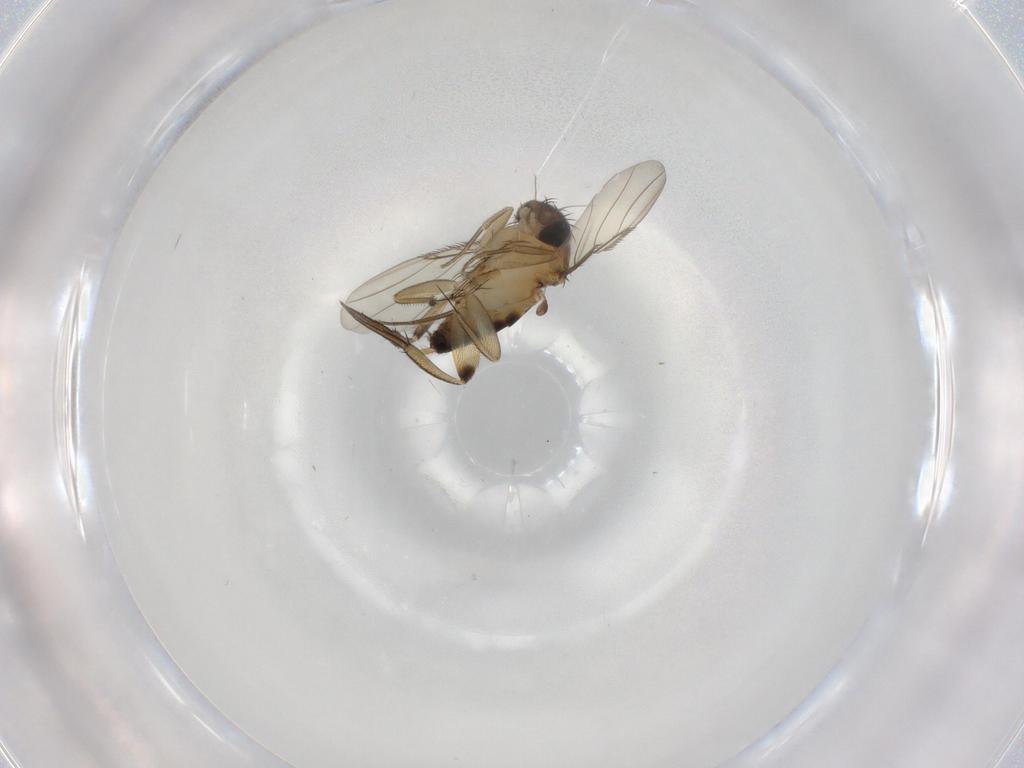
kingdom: Animalia
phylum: Arthropoda
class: Insecta
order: Diptera
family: Phoridae
